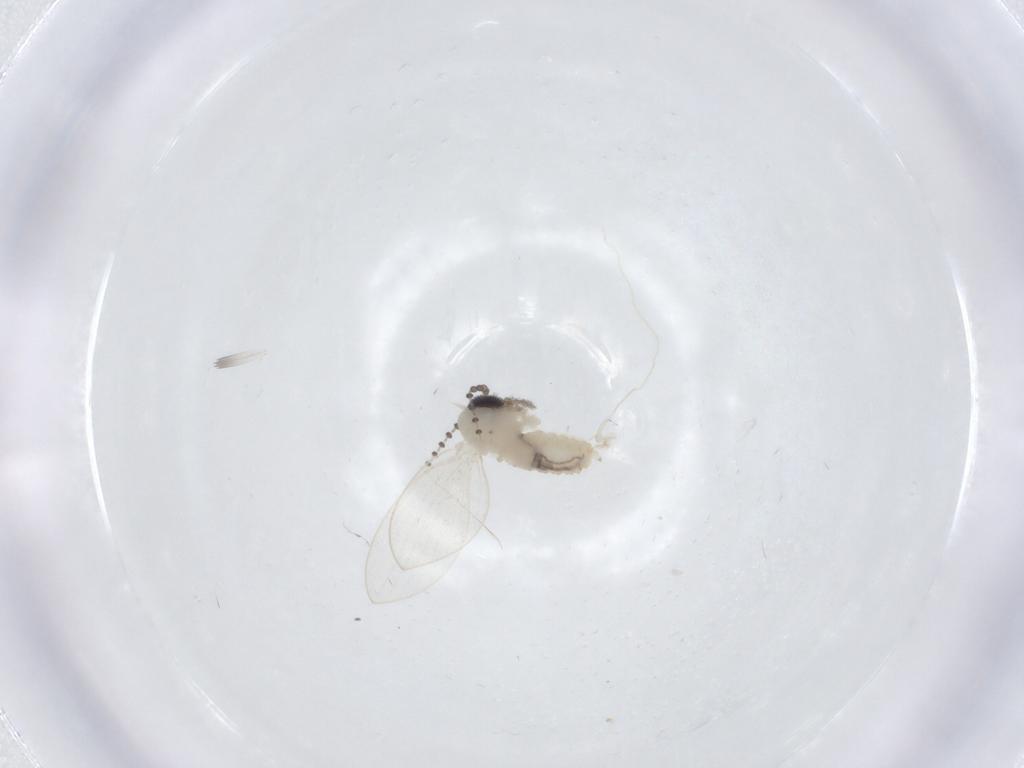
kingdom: Animalia
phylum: Arthropoda
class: Insecta
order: Diptera
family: Psychodidae
